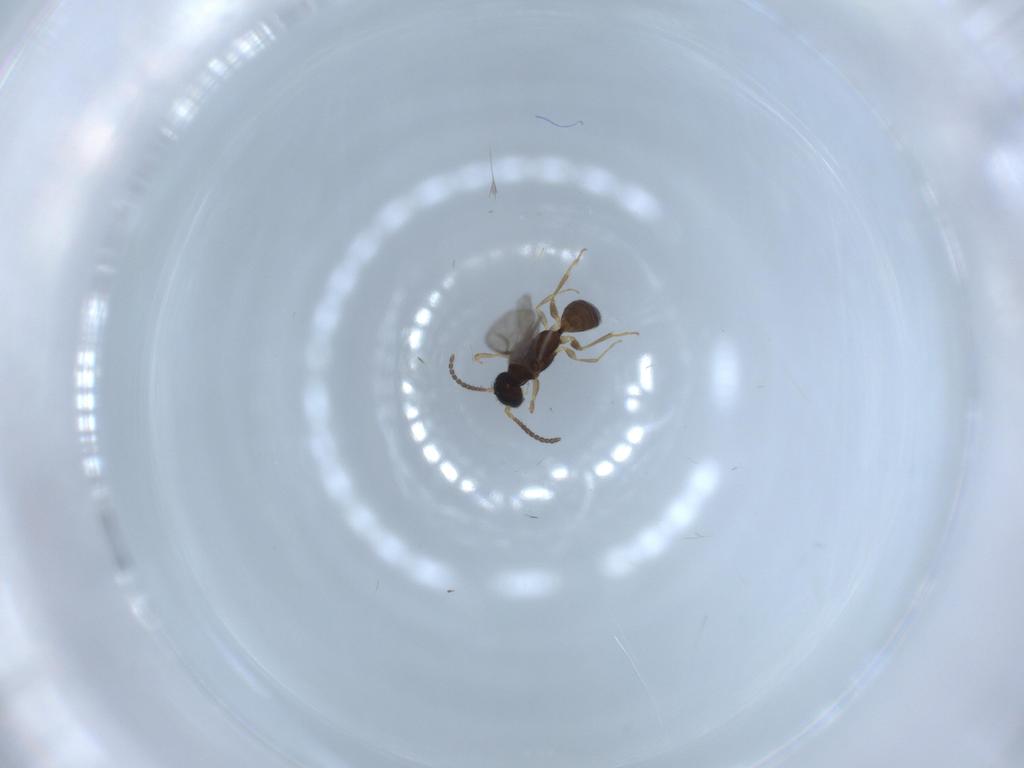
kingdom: Animalia
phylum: Arthropoda
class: Insecta
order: Hymenoptera
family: Bethylidae
